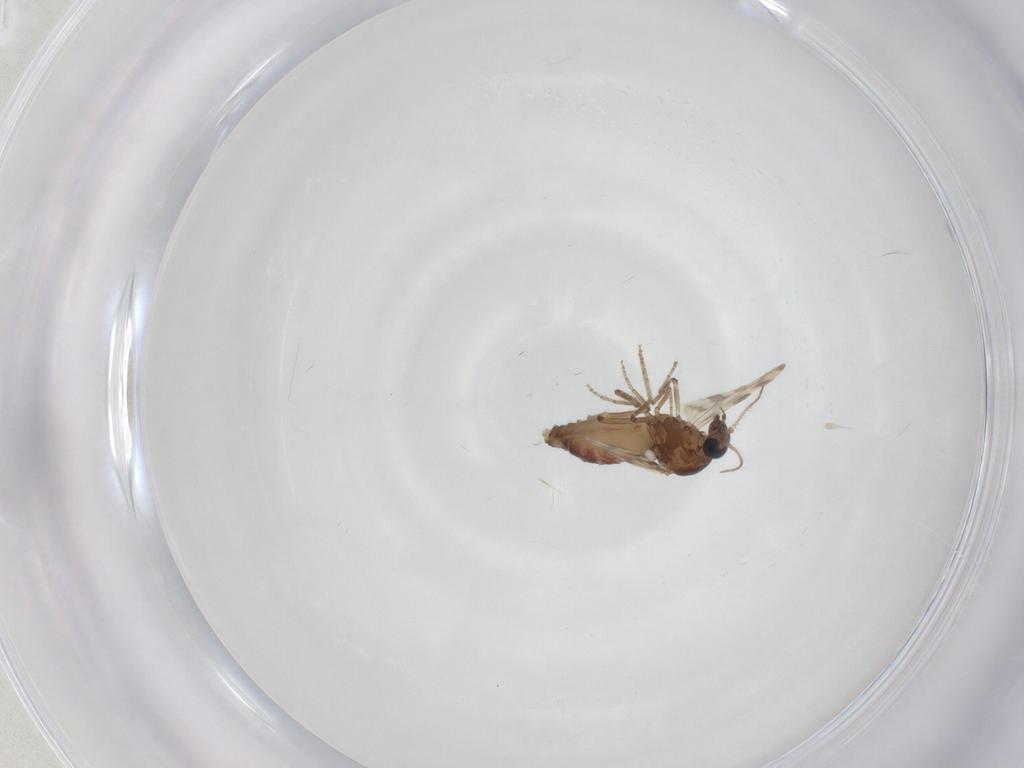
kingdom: Animalia
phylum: Arthropoda
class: Insecta
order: Diptera
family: Ceratopogonidae
